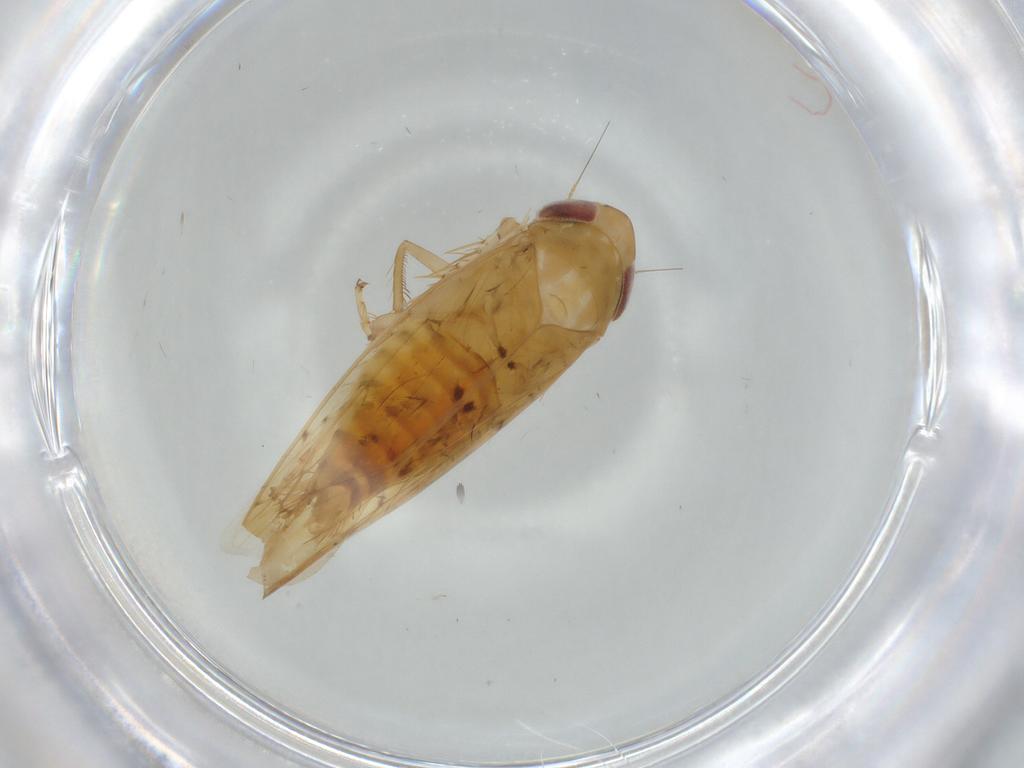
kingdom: Animalia
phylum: Arthropoda
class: Insecta
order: Hemiptera
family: Cicadellidae
